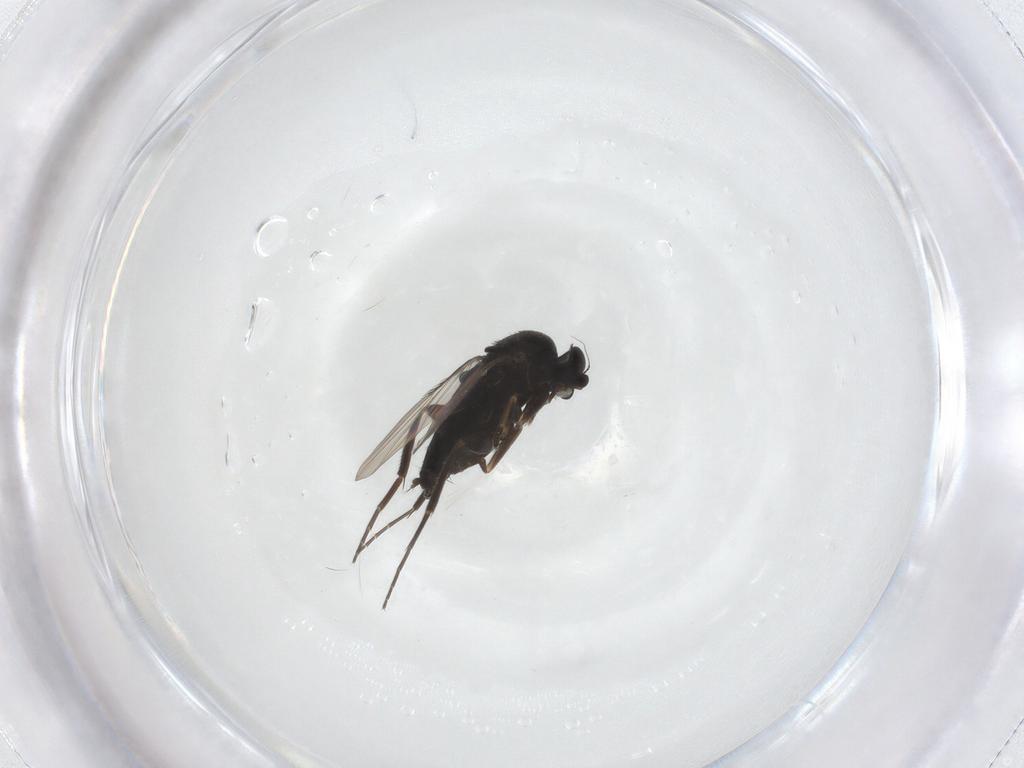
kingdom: Animalia
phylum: Arthropoda
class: Insecta
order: Diptera
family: Phoridae
